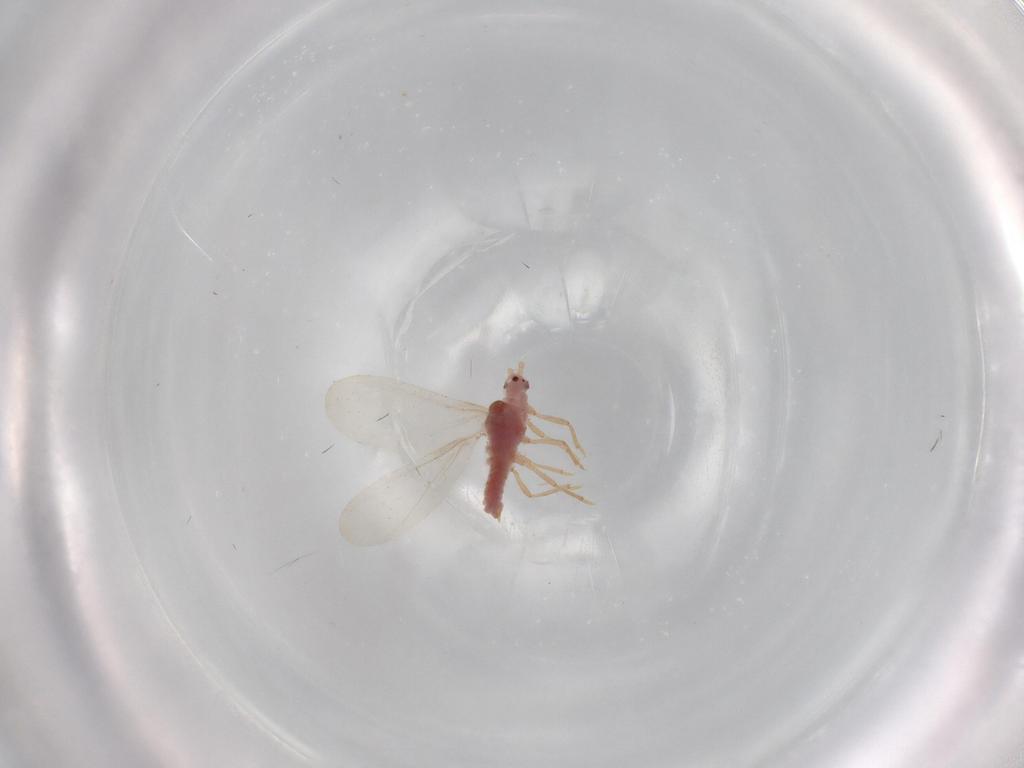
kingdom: Animalia
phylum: Arthropoda
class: Insecta
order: Hemiptera
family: Pseudococcidae
